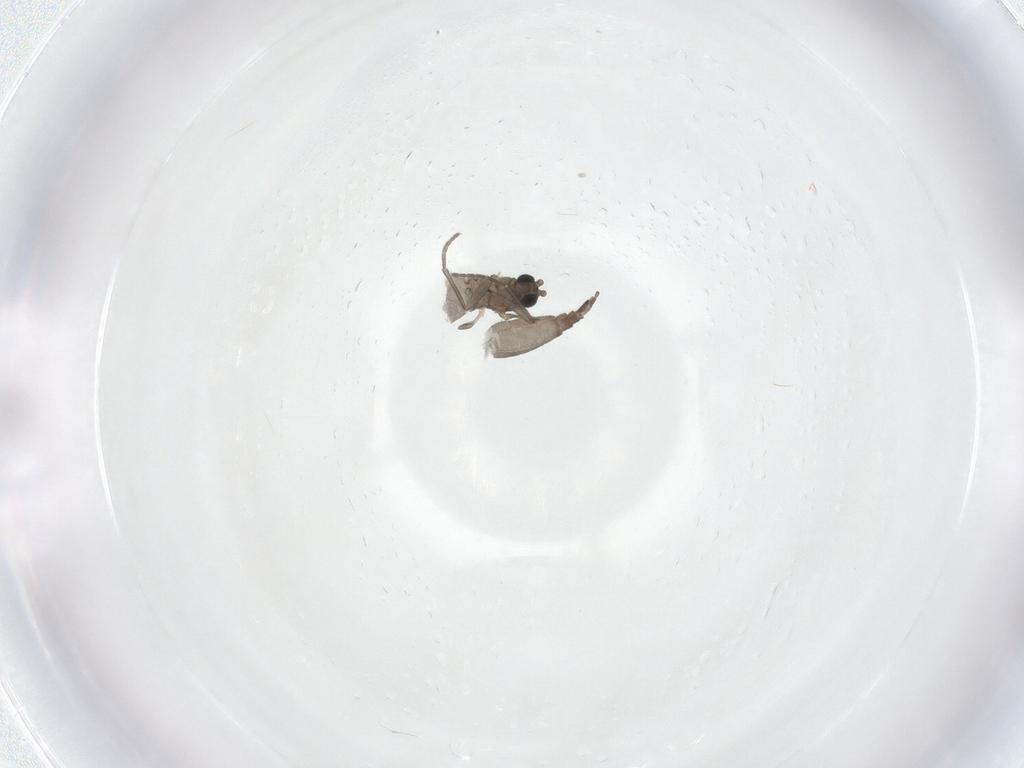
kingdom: Animalia
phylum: Arthropoda
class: Insecta
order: Diptera
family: Sciaridae
